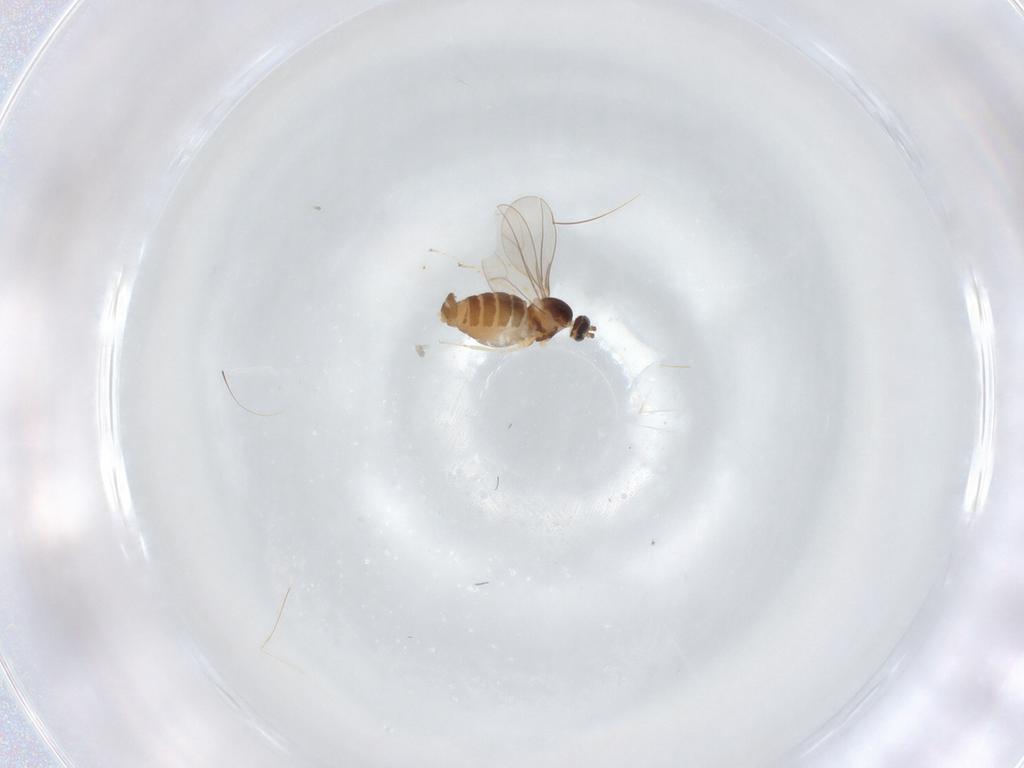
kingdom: Animalia
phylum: Arthropoda
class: Insecta
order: Diptera
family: Cecidomyiidae
